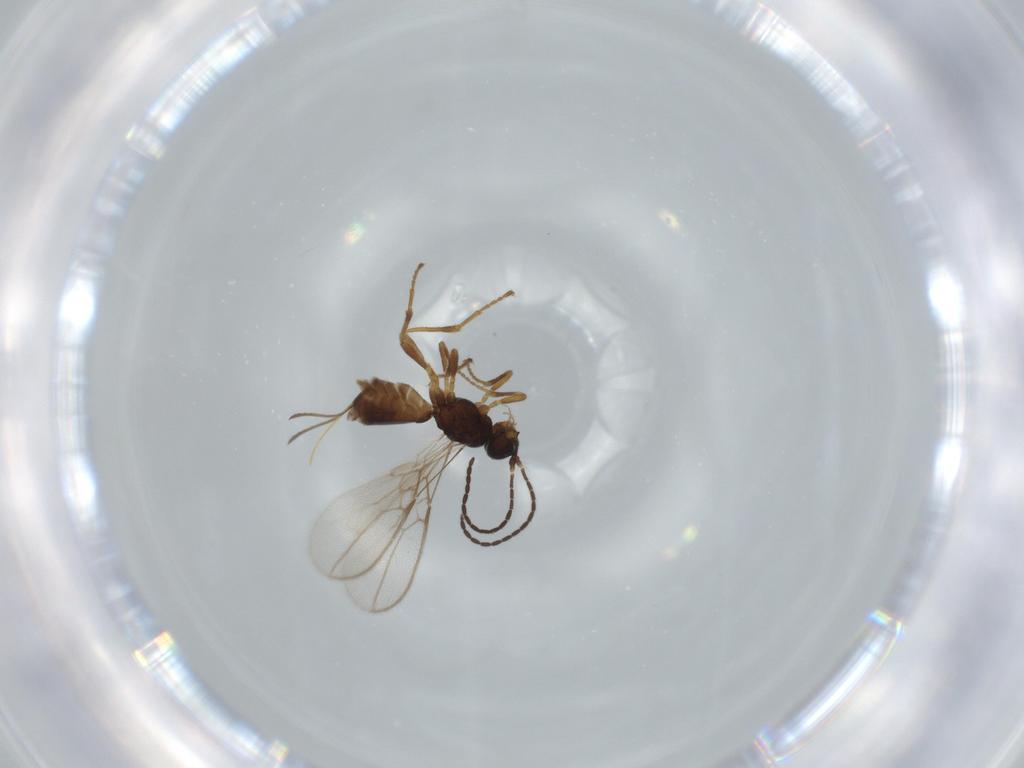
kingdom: Animalia
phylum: Arthropoda
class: Insecta
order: Hymenoptera
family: Braconidae
